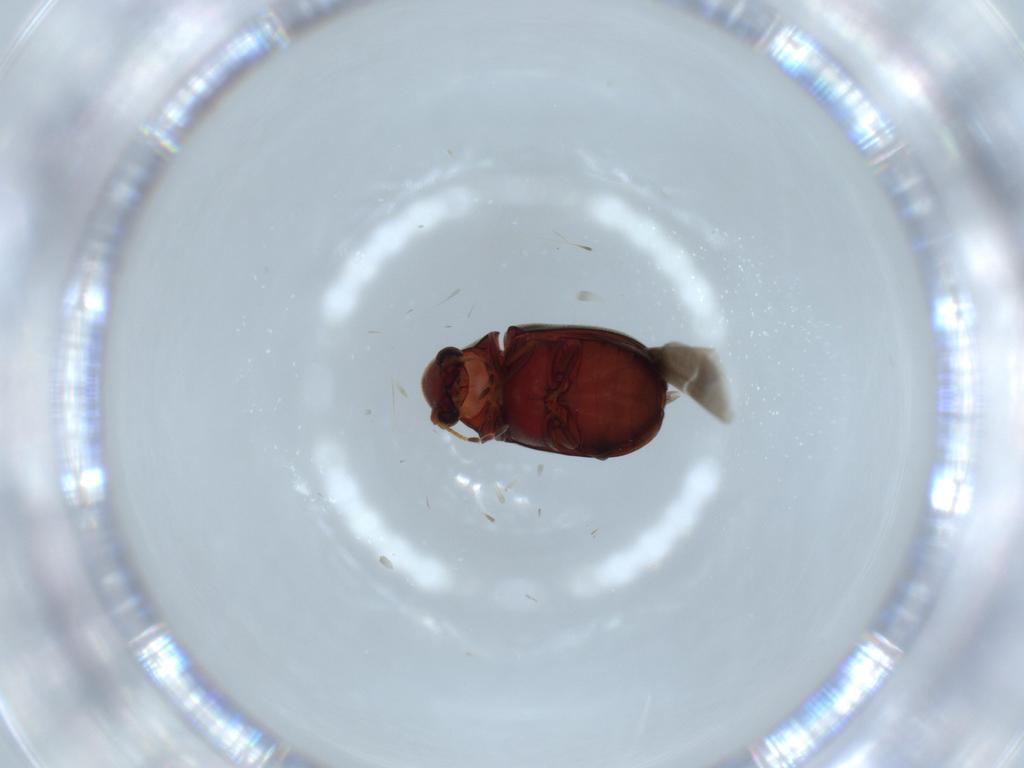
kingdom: Animalia
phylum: Arthropoda
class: Insecta
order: Coleoptera
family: Ptinidae
